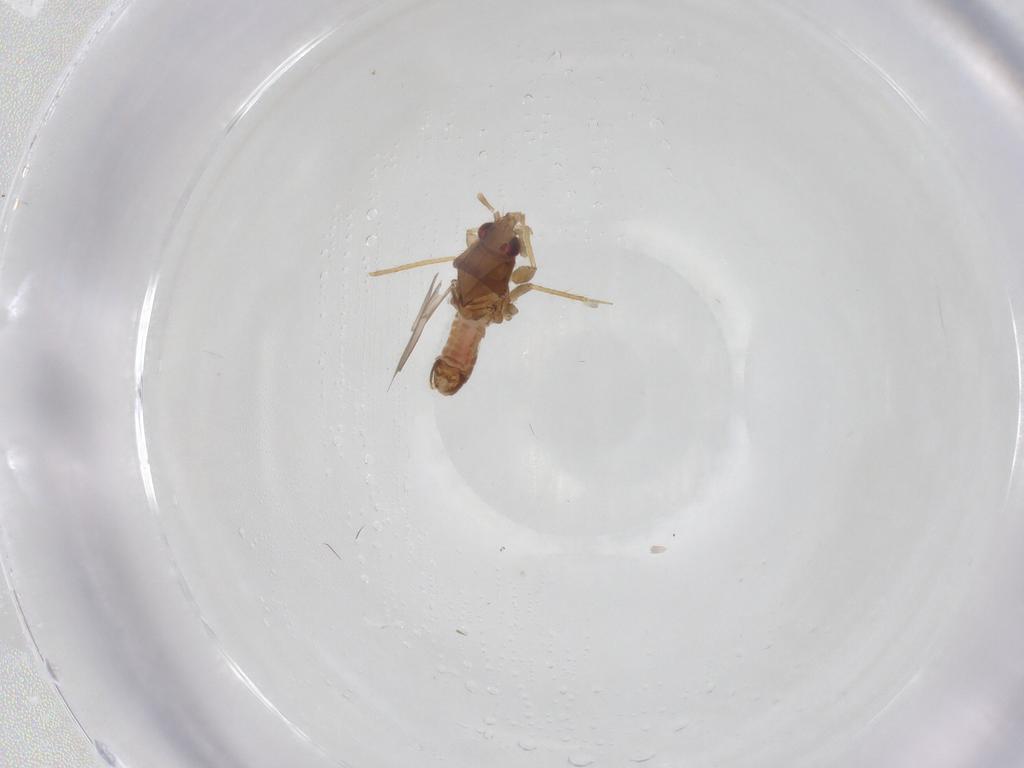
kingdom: Animalia
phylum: Arthropoda
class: Insecta
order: Hemiptera
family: Ceratocombidae
